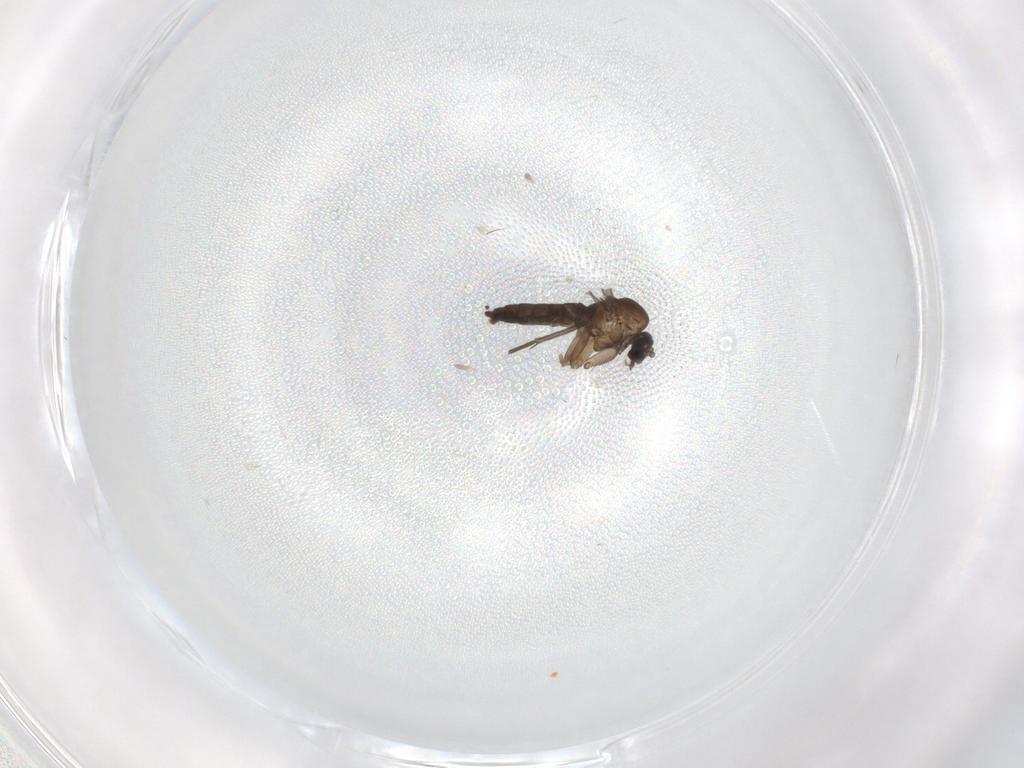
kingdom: Animalia
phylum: Arthropoda
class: Insecta
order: Diptera
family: Sciaridae
